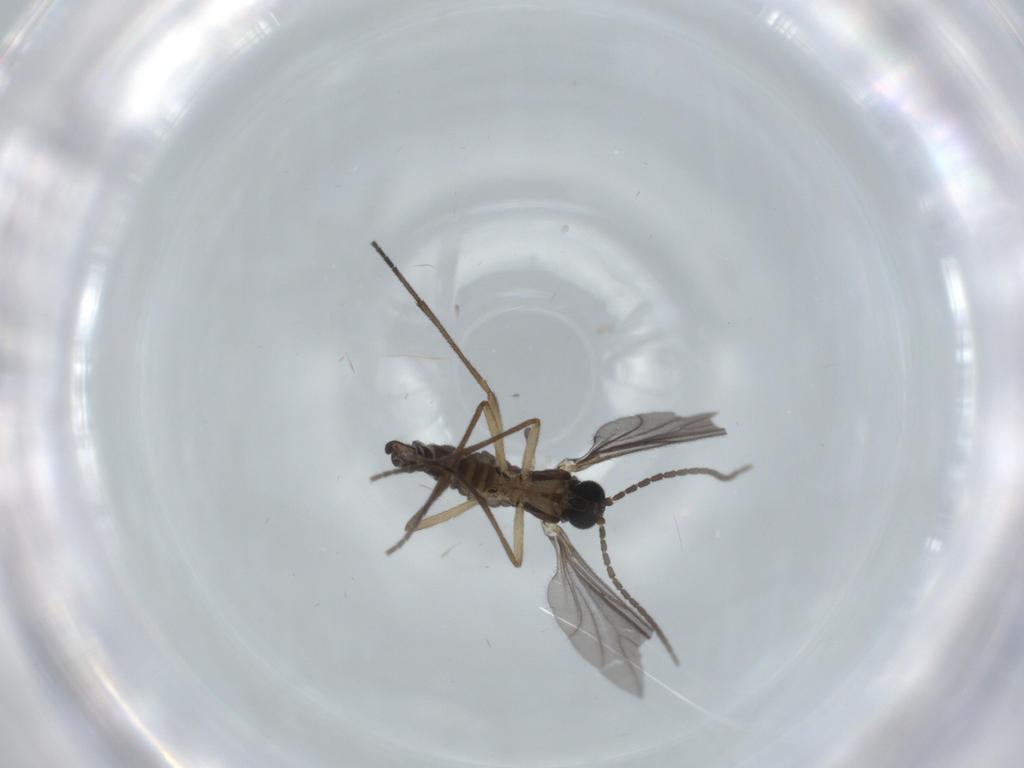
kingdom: Animalia
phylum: Arthropoda
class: Insecta
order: Diptera
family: Sciaridae
